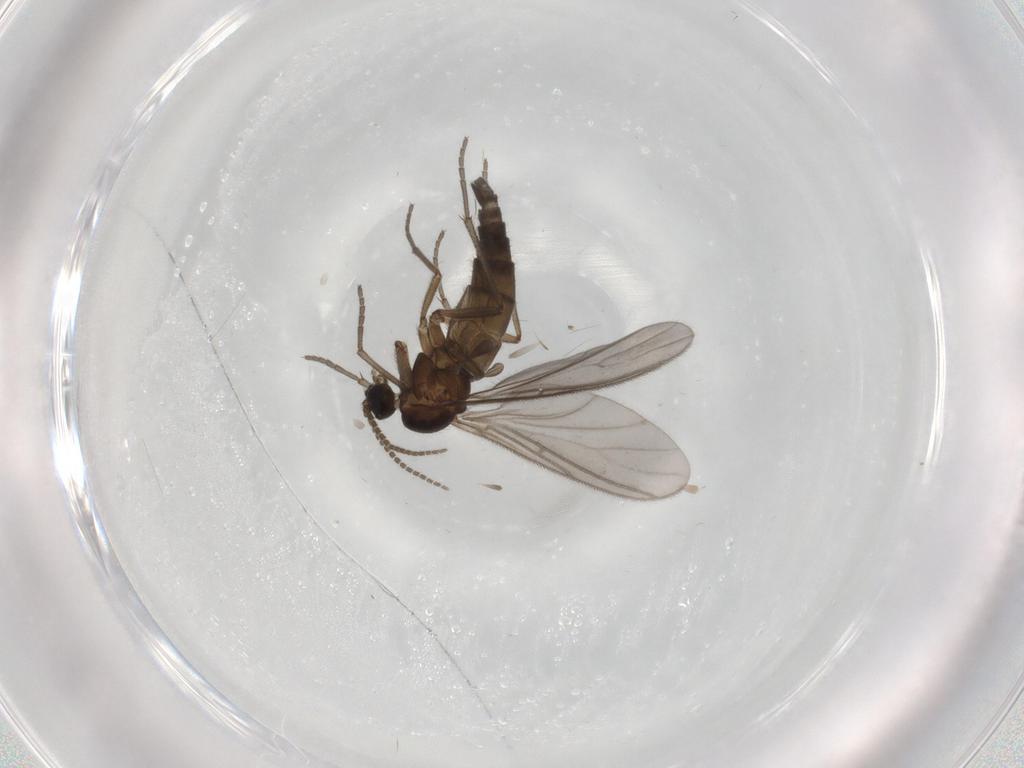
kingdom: Animalia
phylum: Arthropoda
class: Insecta
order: Diptera
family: Sciaridae
